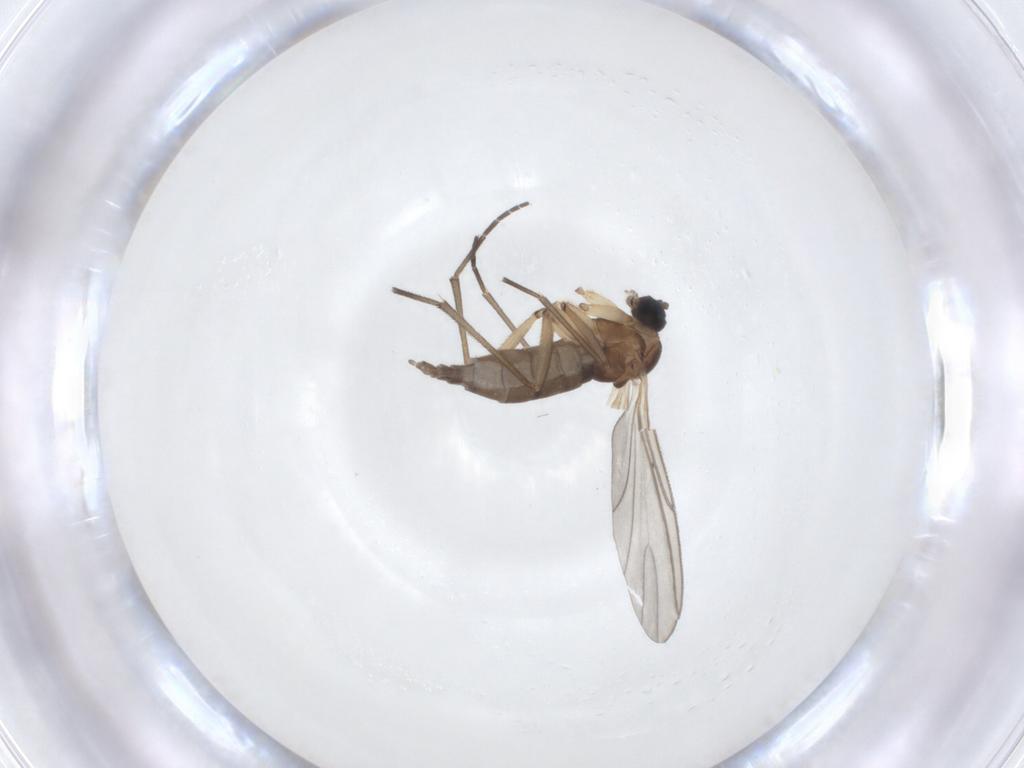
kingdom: Animalia
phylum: Arthropoda
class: Insecta
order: Diptera
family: Sciaridae
